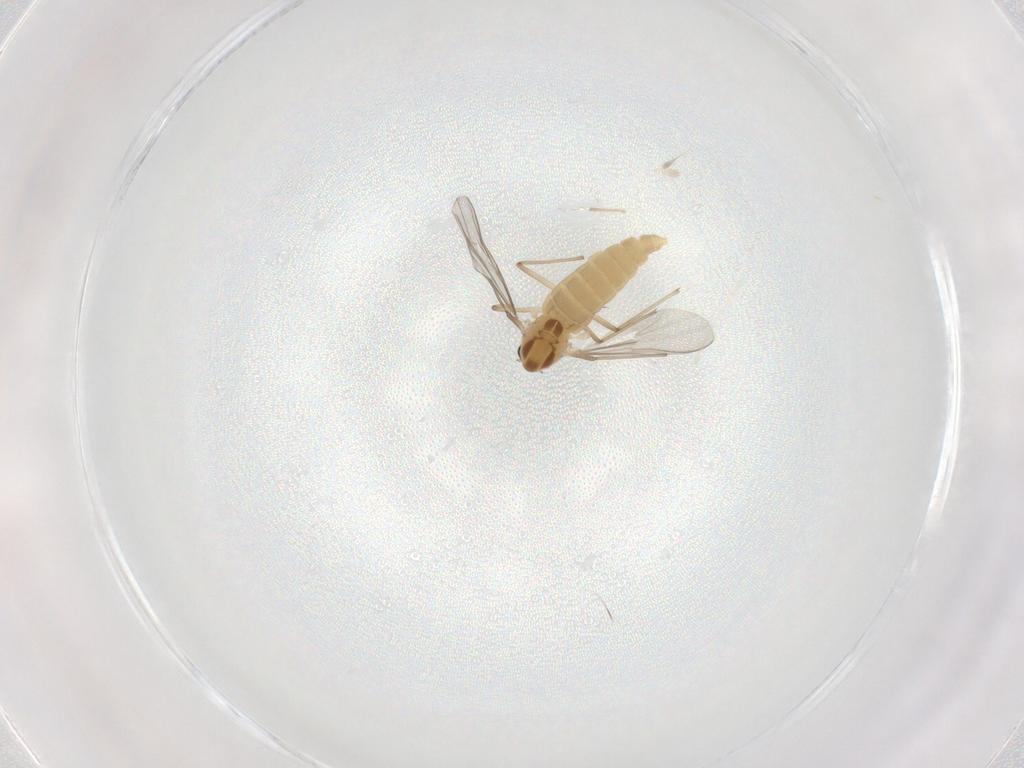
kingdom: Animalia
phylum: Arthropoda
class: Insecta
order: Diptera
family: Chironomidae
